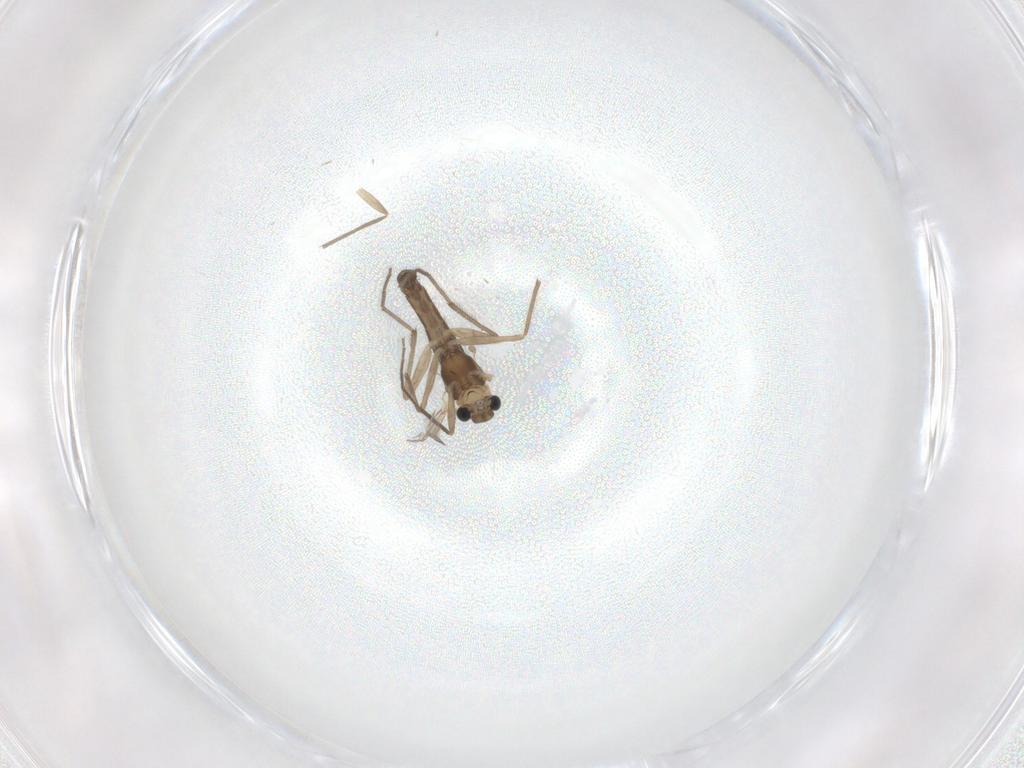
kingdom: Animalia
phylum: Arthropoda
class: Insecta
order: Diptera
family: Chironomidae
